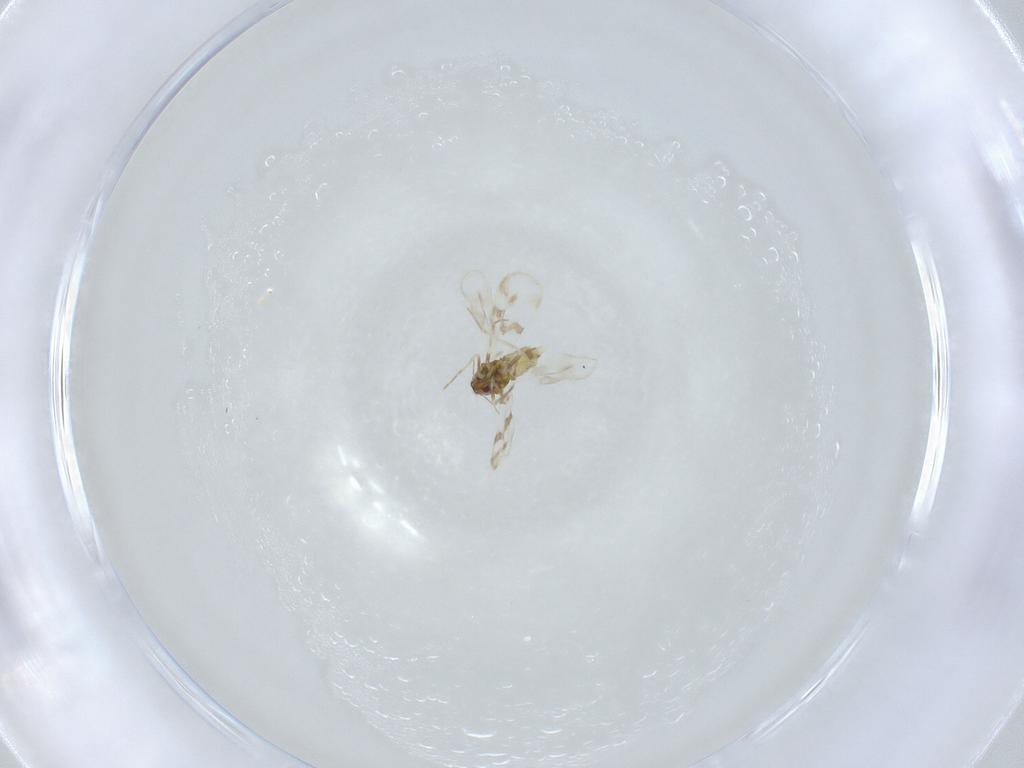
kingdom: Animalia
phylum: Arthropoda
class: Insecta
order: Hemiptera
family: Aleyrodidae
